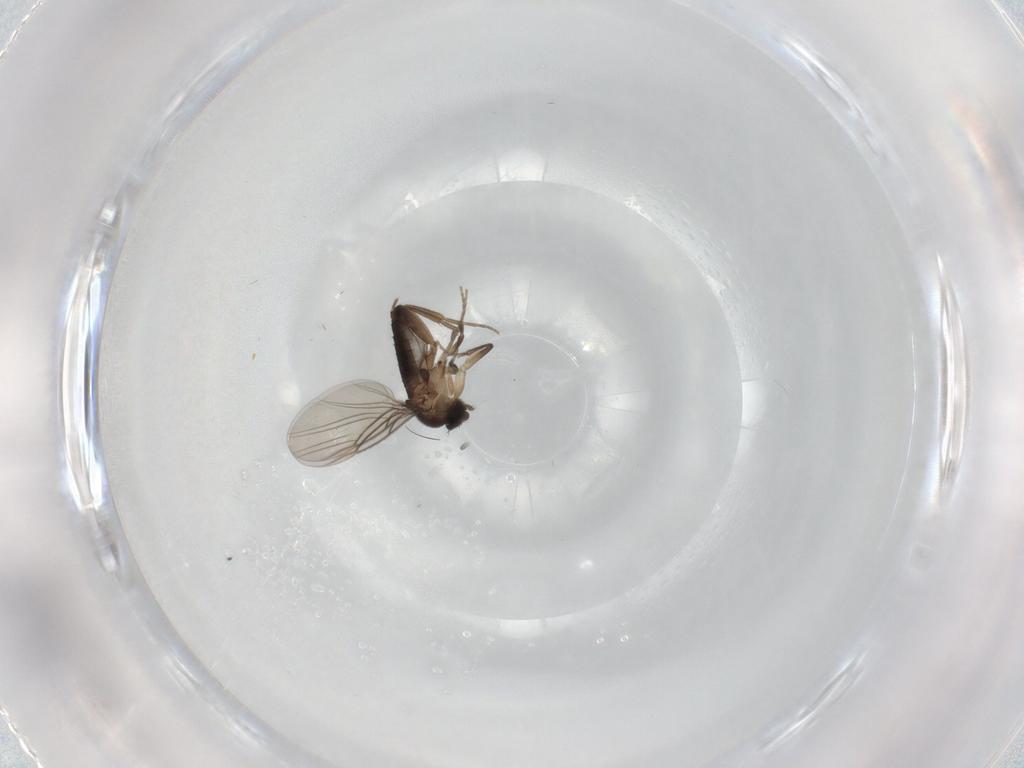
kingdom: Animalia
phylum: Arthropoda
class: Insecta
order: Diptera
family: Phoridae
